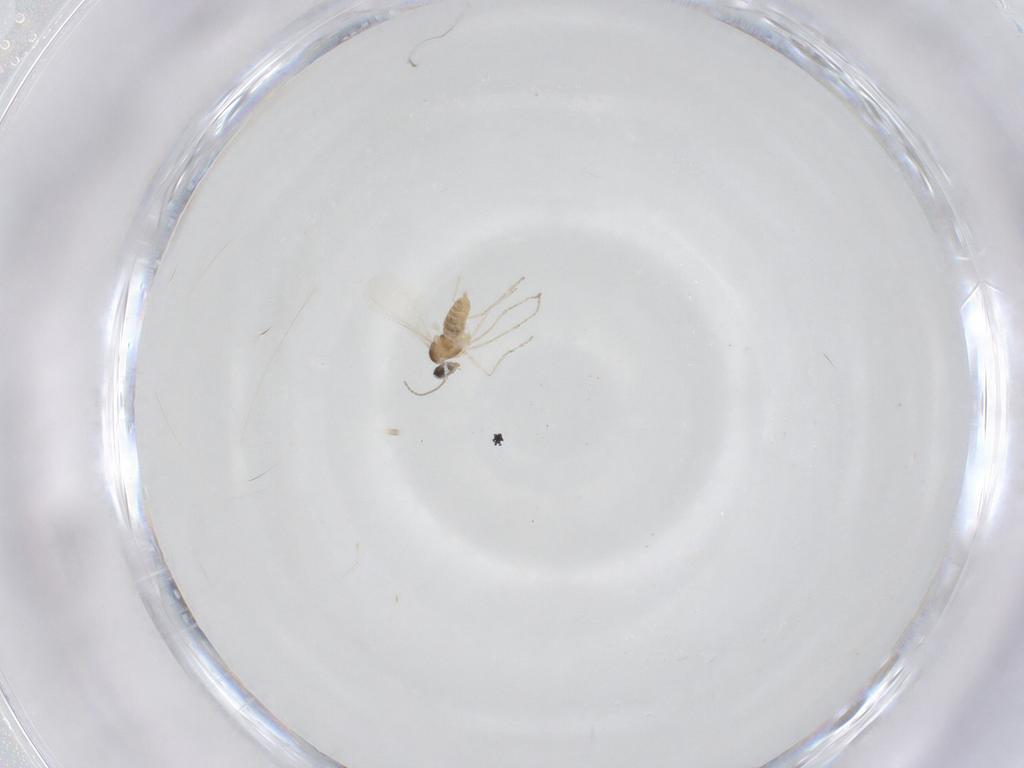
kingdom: Animalia
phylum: Arthropoda
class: Insecta
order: Diptera
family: Cecidomyiidae
